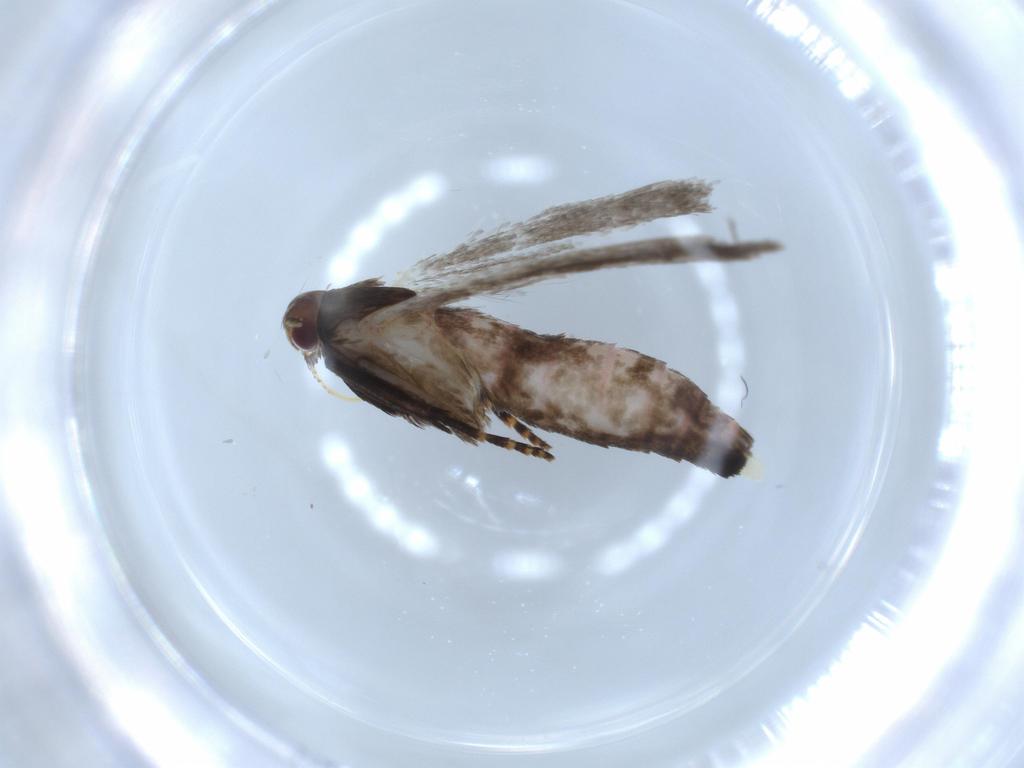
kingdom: Animalia
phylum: Arthropoda
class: Insecta
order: Lepidoptera
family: Gelechiidae
